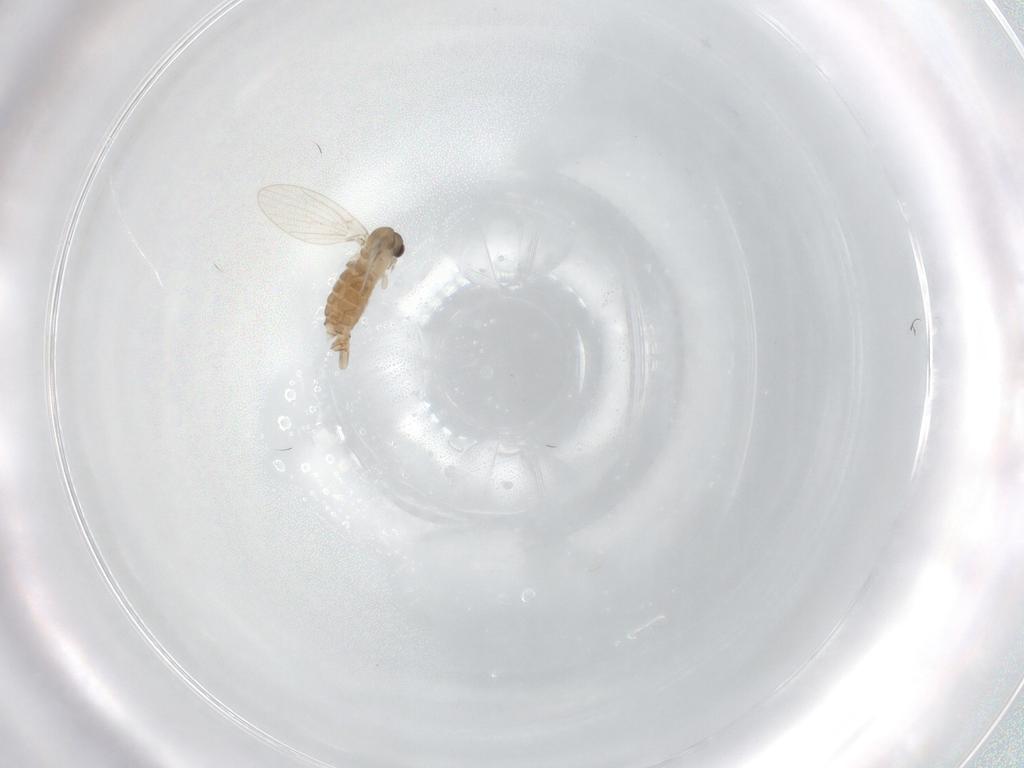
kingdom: Animalia
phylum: Arthropoda
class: Insecta
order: Diptera
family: Psychodidae
